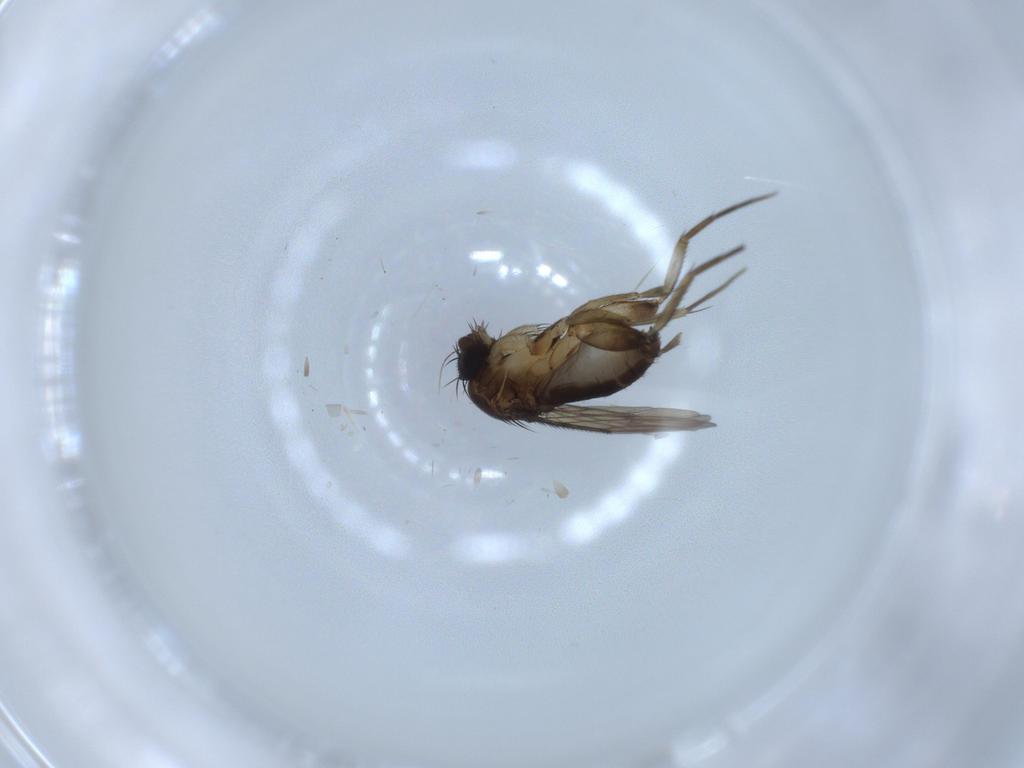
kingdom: Animalia
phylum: Arthropoda
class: Insecta
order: Diptera
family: Phoridae
